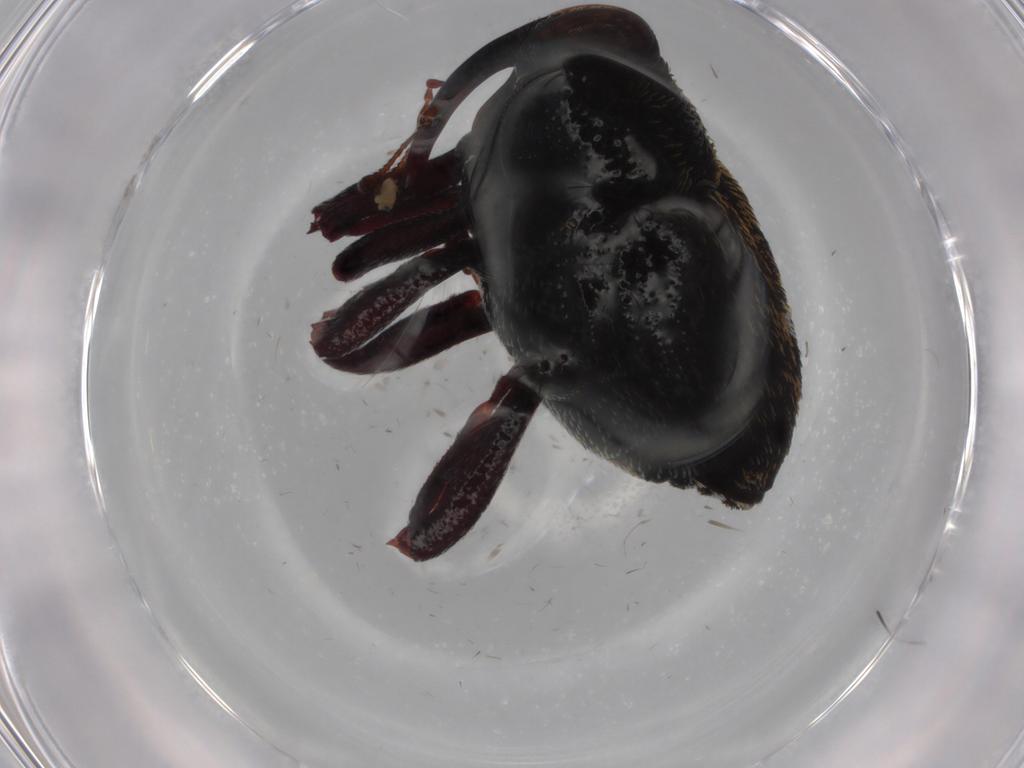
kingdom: Animalia
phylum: Arthropoda
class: Insecta
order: Coleoptera
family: Curculionidae
